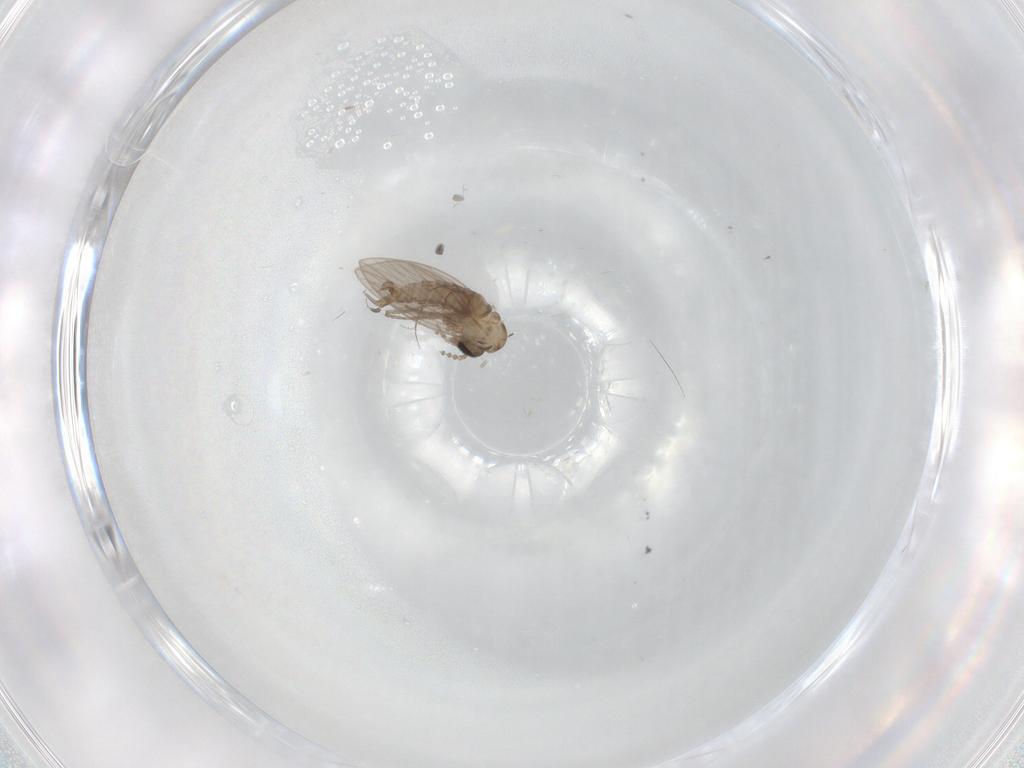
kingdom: Animalia
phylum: Arthropoda
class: Insecta
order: Diptera
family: Psychodidae
